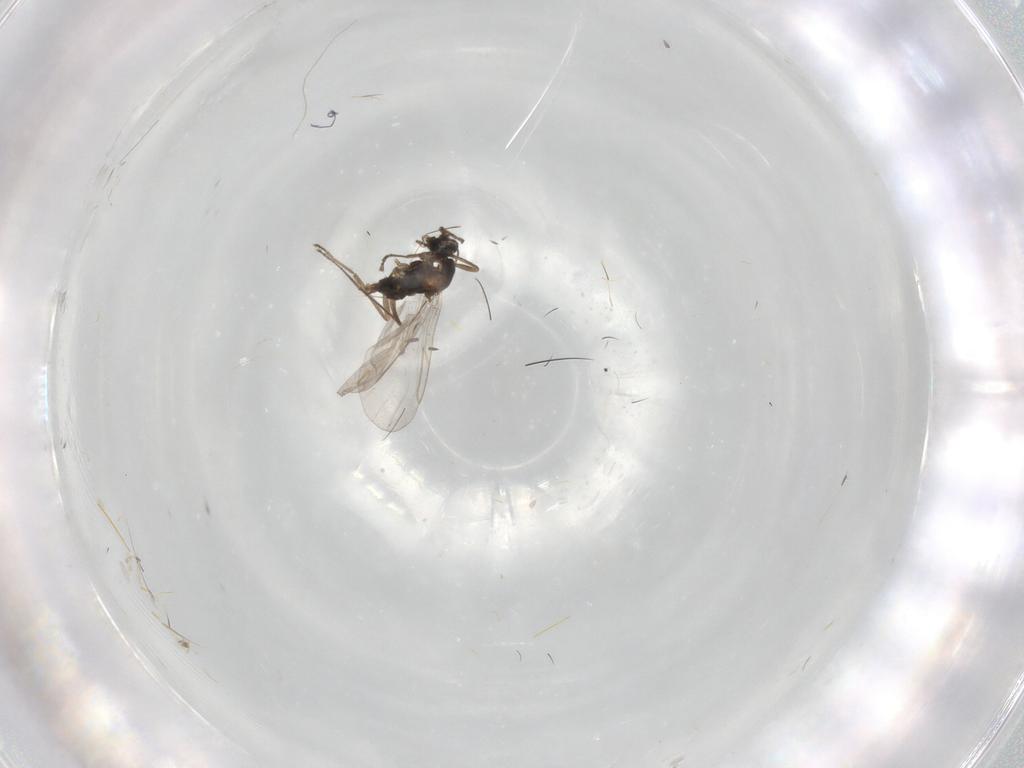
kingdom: Animalia
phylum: Arthropoda
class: Insecta
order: Diptera
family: Cecidomyiidae
